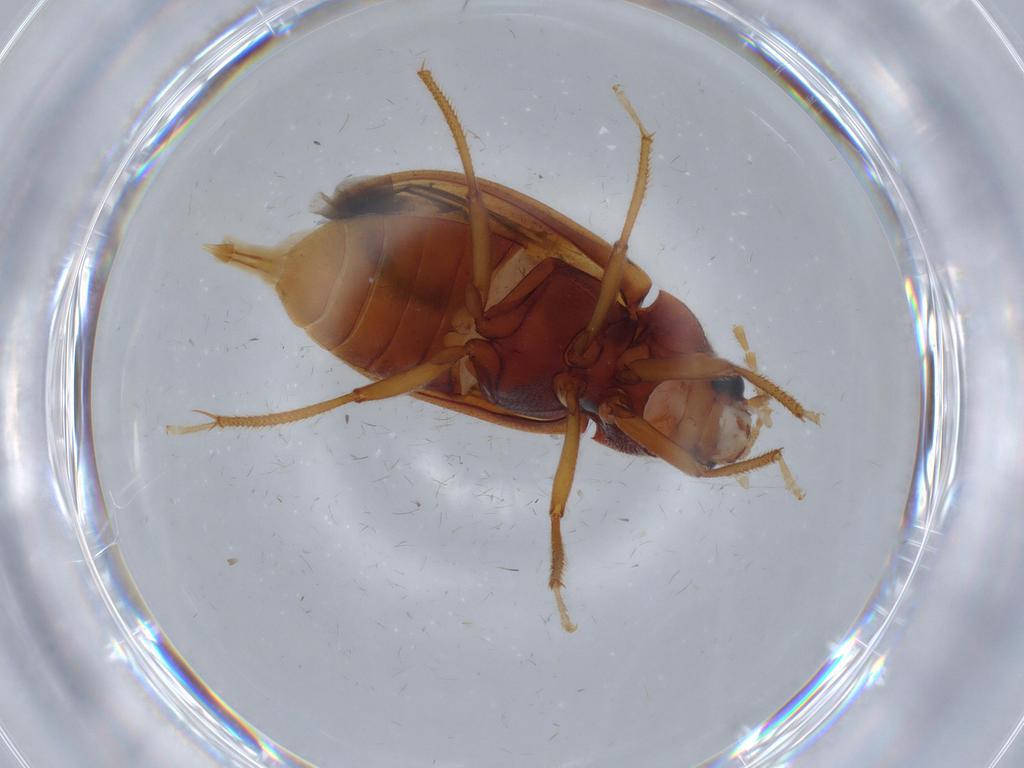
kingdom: Animalia
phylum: Arthropoda
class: Insecta
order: Coleoptera
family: Ptilodactylidae
